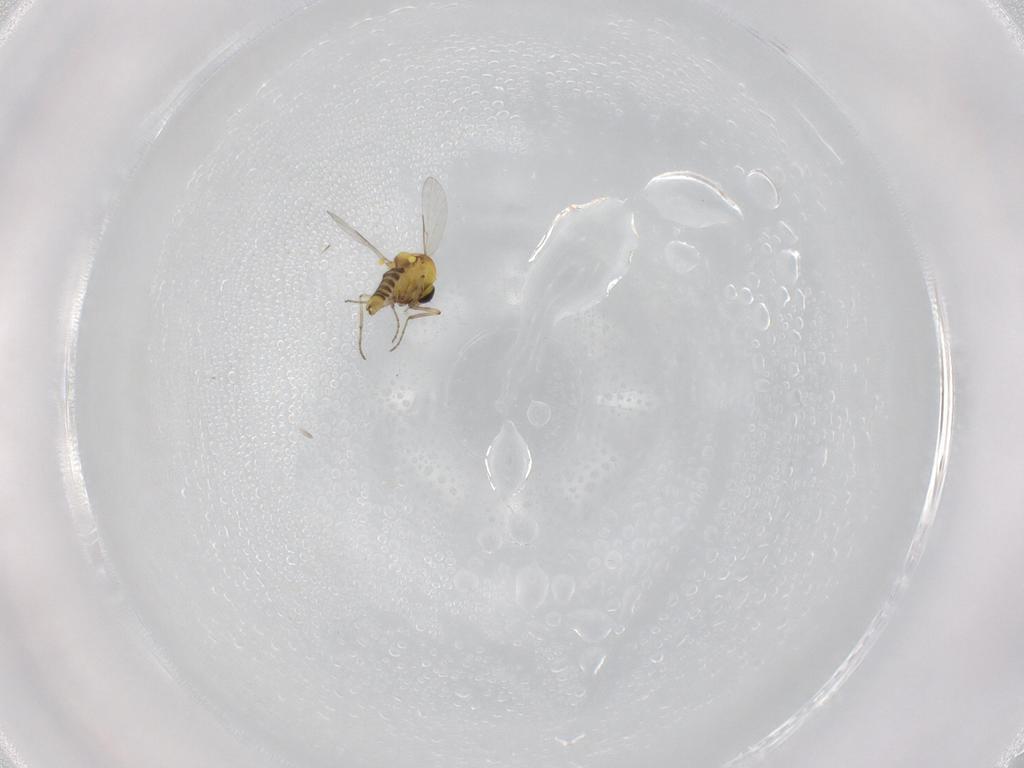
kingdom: Animalia
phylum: Arthropoda
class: Insecta
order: Diptera
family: Ceratopogonidae
